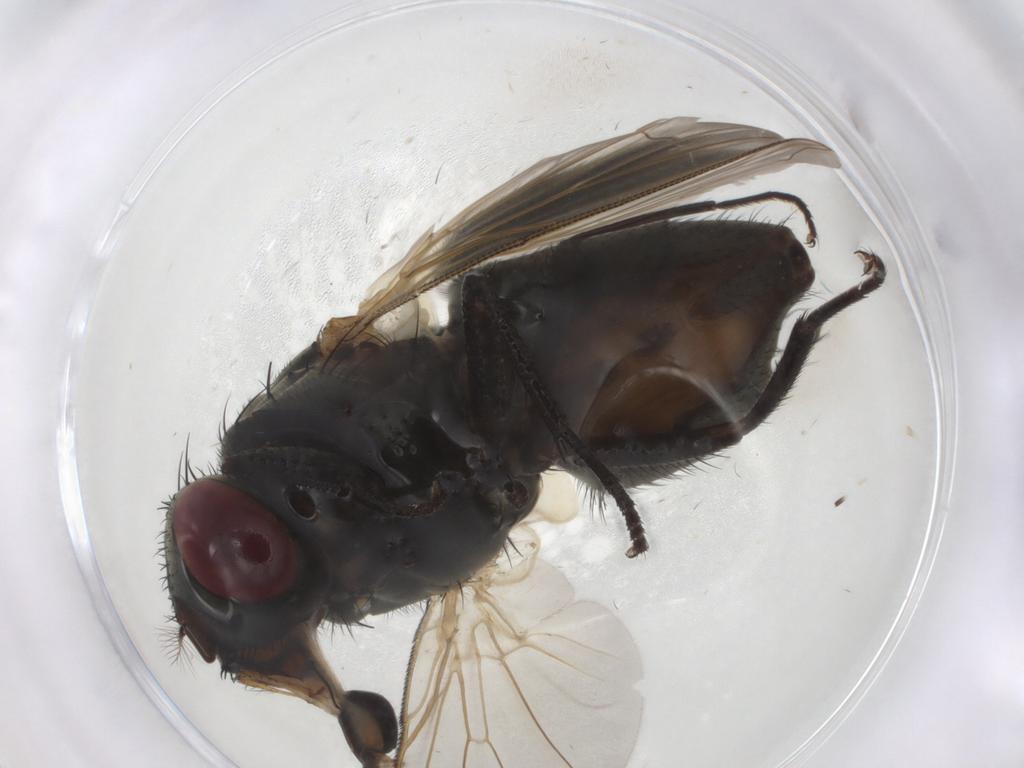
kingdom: Animalia
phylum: Arthropoda
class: Insecta
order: Diptera
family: Muscidae
